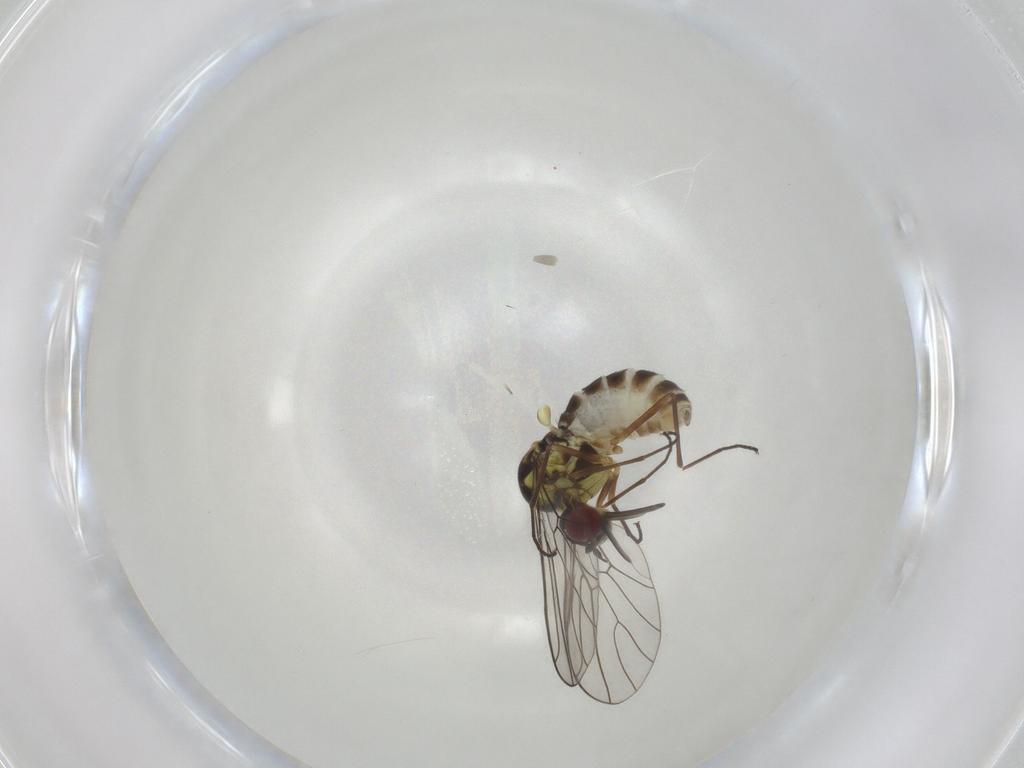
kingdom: Animalia
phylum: Arthropoda
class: Insecta
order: Diptera
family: Bombyliidae
